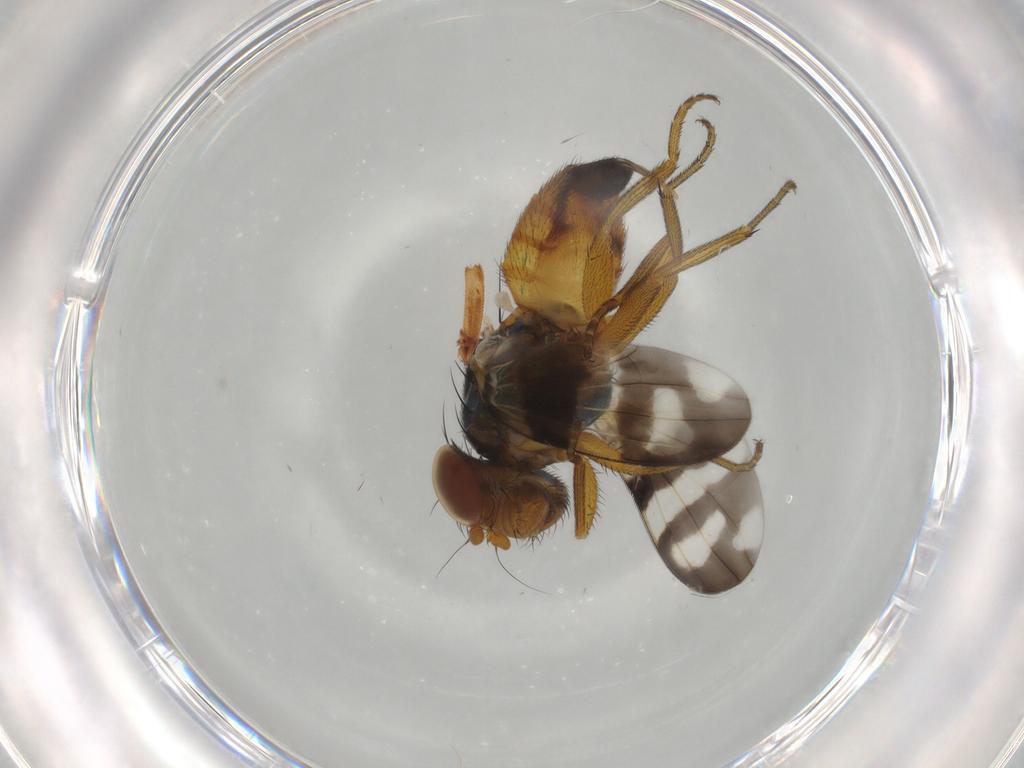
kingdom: Animalia
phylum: Arthropoda
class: Insecta
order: Diptera
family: Ulidiidae
